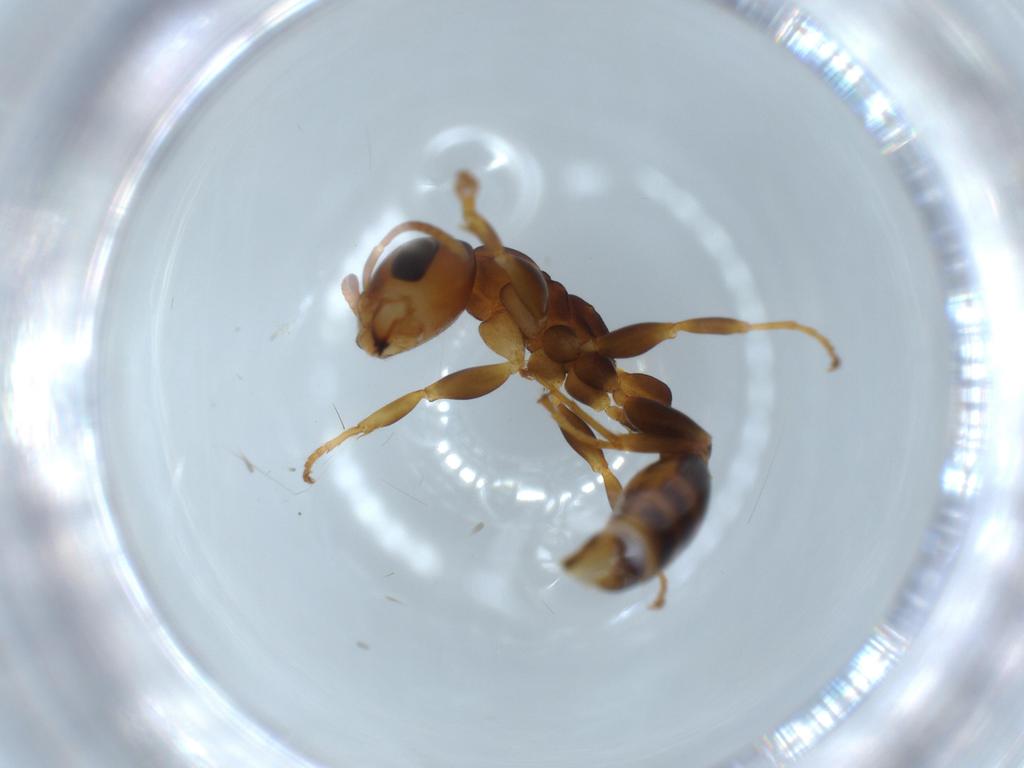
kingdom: Animalia
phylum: Arthropoda
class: Insecta
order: Hymenoptera
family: Formicidae
